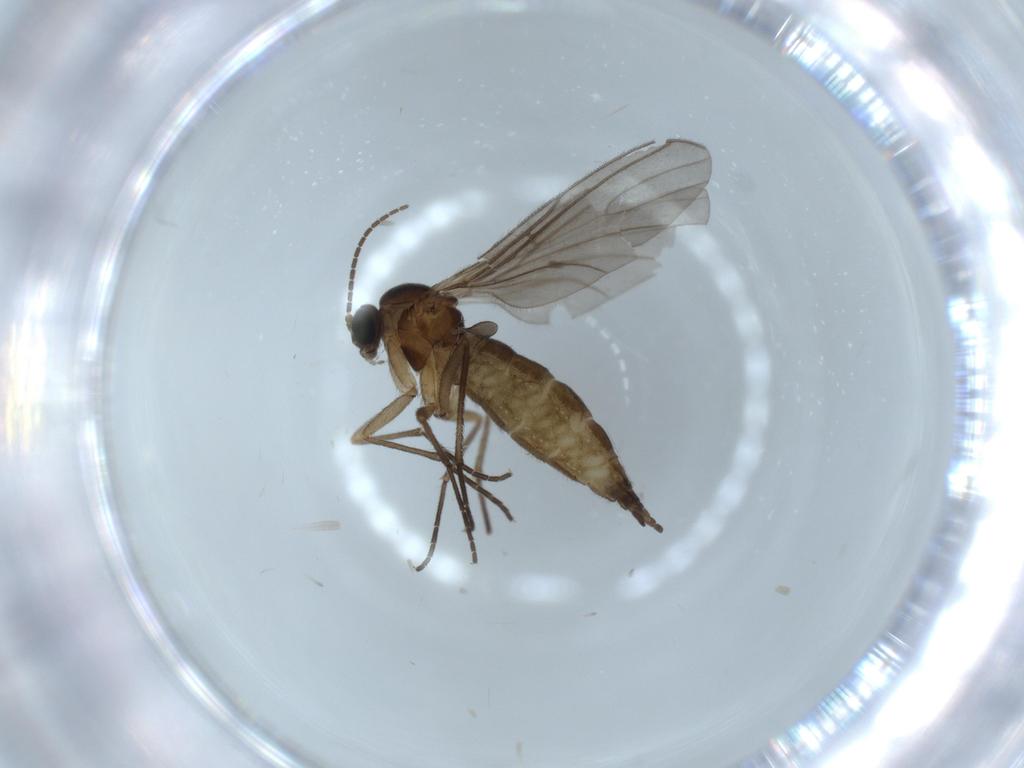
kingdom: Animalia
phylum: Arthropoda
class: Insecta
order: Diptera
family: Sciaridae
